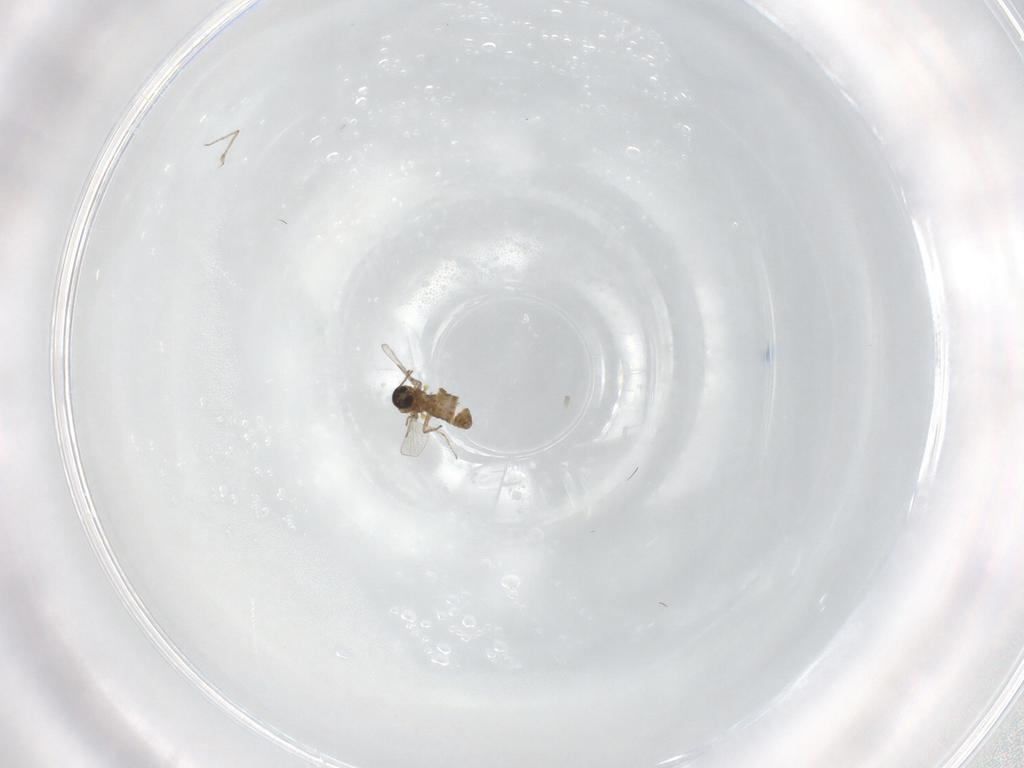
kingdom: Animalia
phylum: Arthropoda
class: Insecta
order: Diptera
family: Ceratopogonidae
